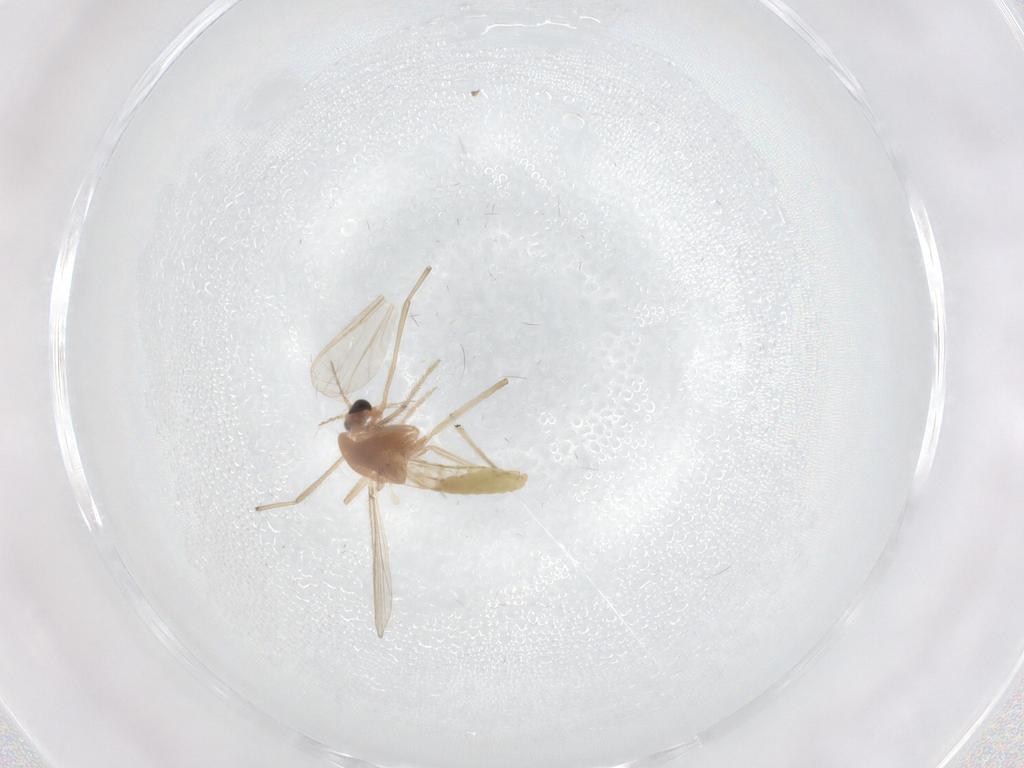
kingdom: Animalia
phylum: Arthropoda
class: Insecta
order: Diptera
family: Chironomidae
